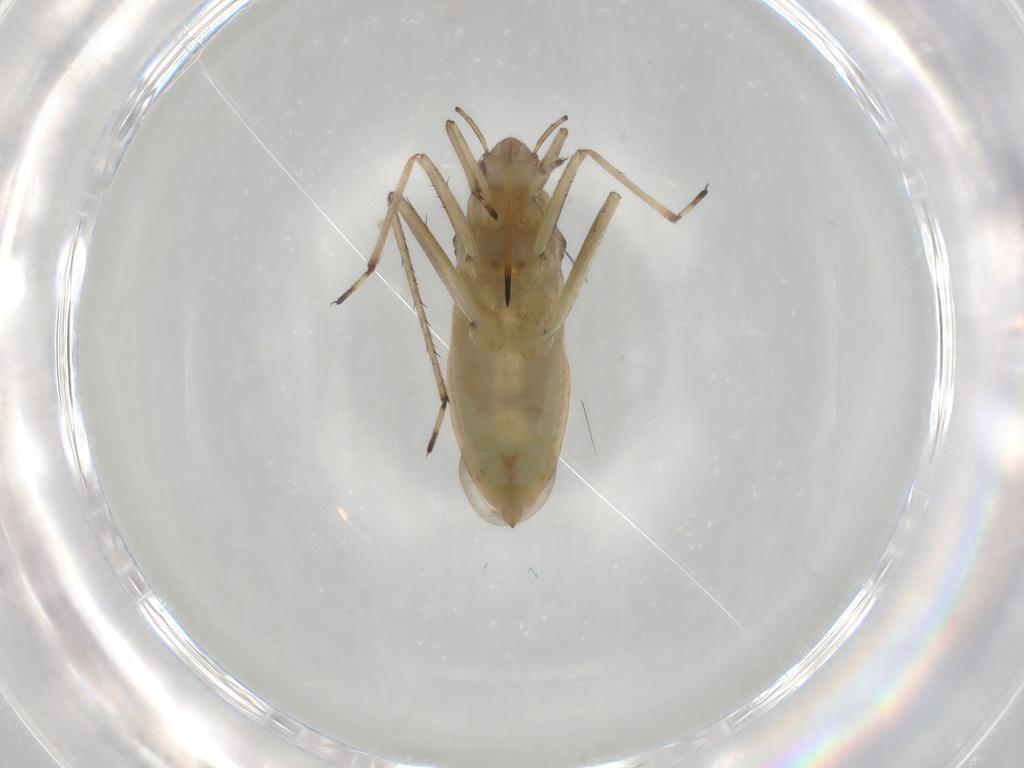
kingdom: Animalia
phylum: Arthropoda
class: Insecta
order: Hemiptera
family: Mesoveliidae
